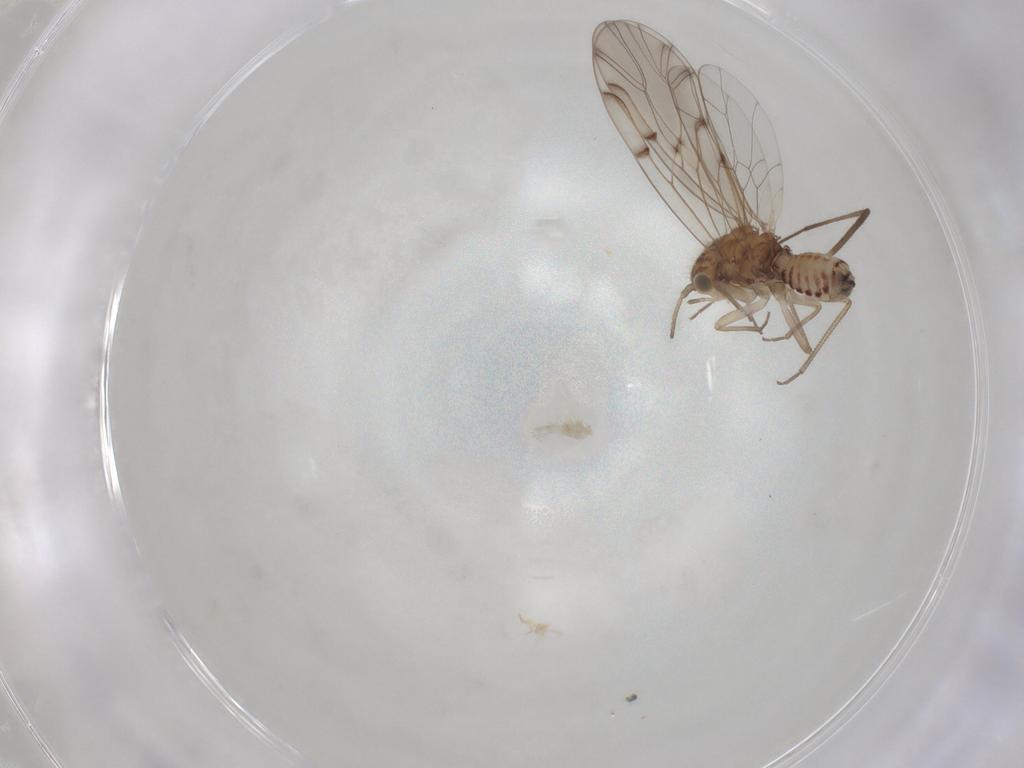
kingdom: Animalia
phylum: Arthropoda
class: Insecta
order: Psocodea
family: Ectopsocidae
